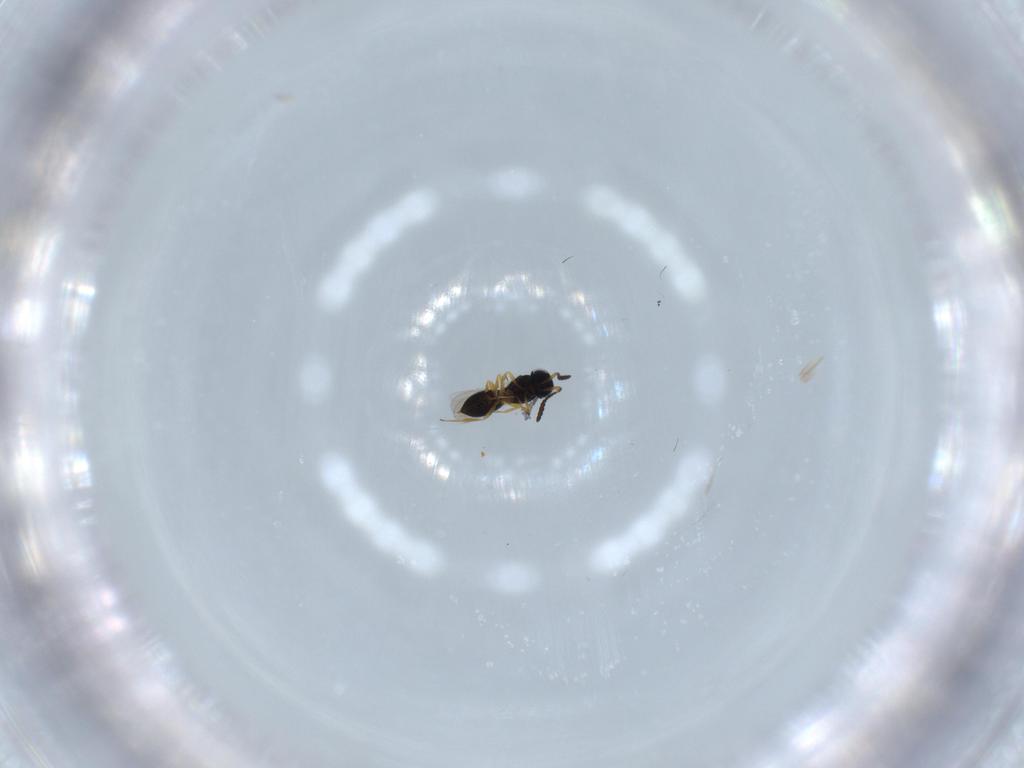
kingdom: Animalia
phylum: Arthropoda
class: Insecta
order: Hymenoptera
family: Scelionidae
